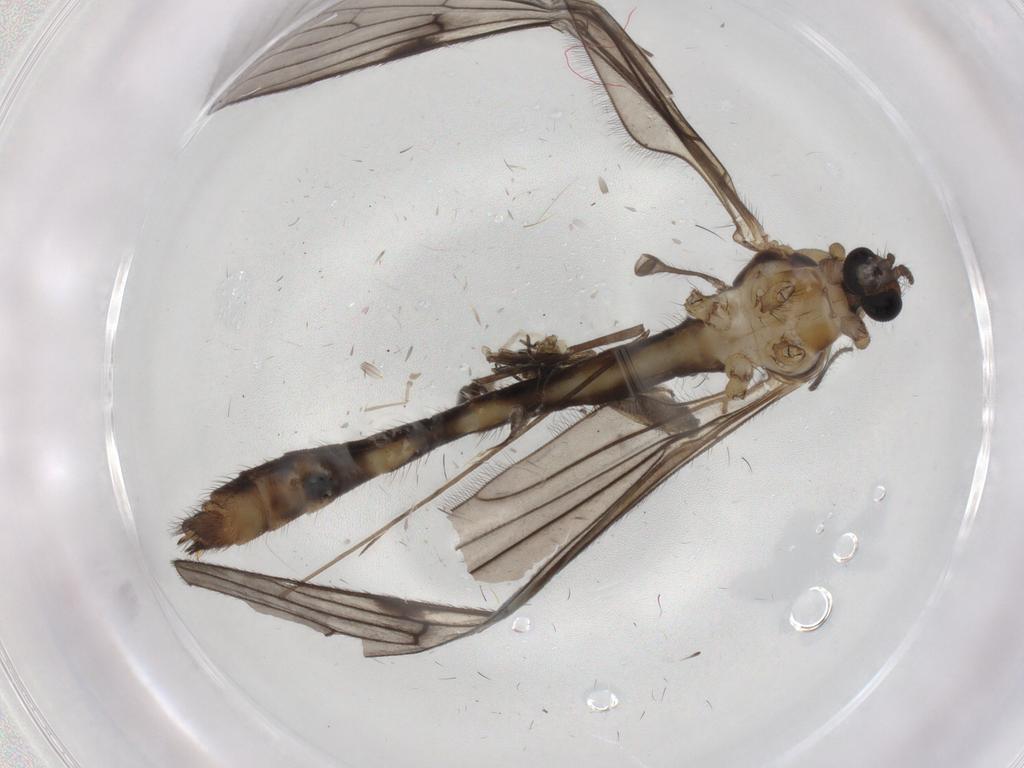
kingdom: Animalia
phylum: Arthropoda
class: Insecta
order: Diptera
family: Limoniidae
